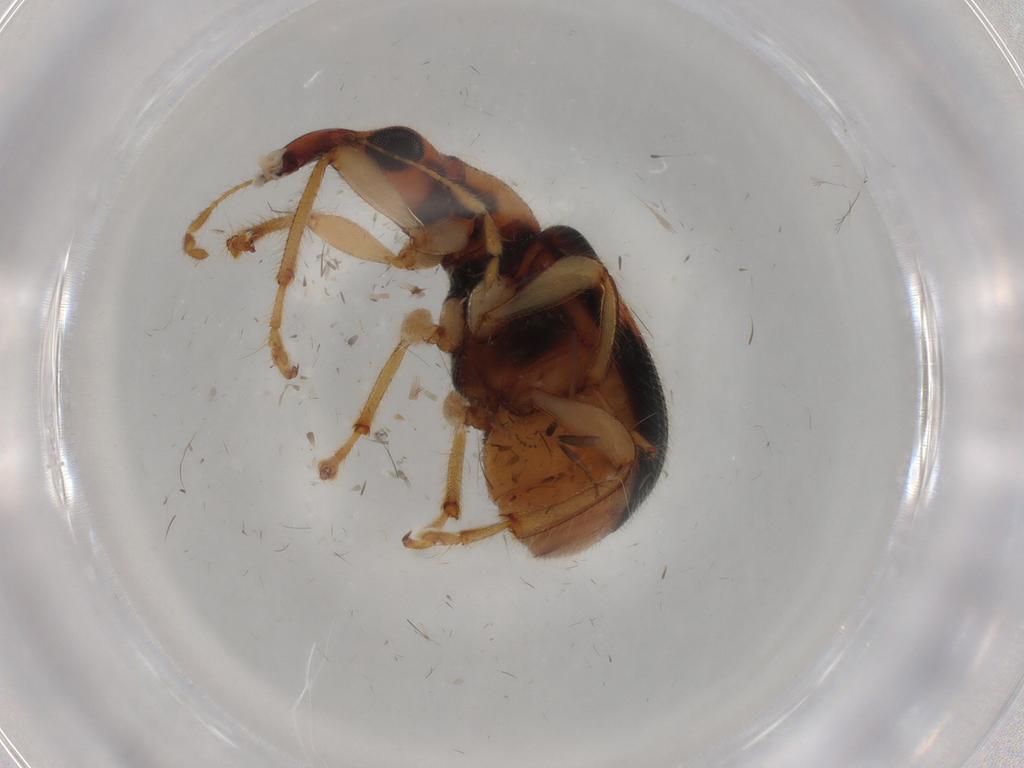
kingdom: Animalia
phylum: Arthropoda
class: Insecta
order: Coleoptera
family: Attelabidae
